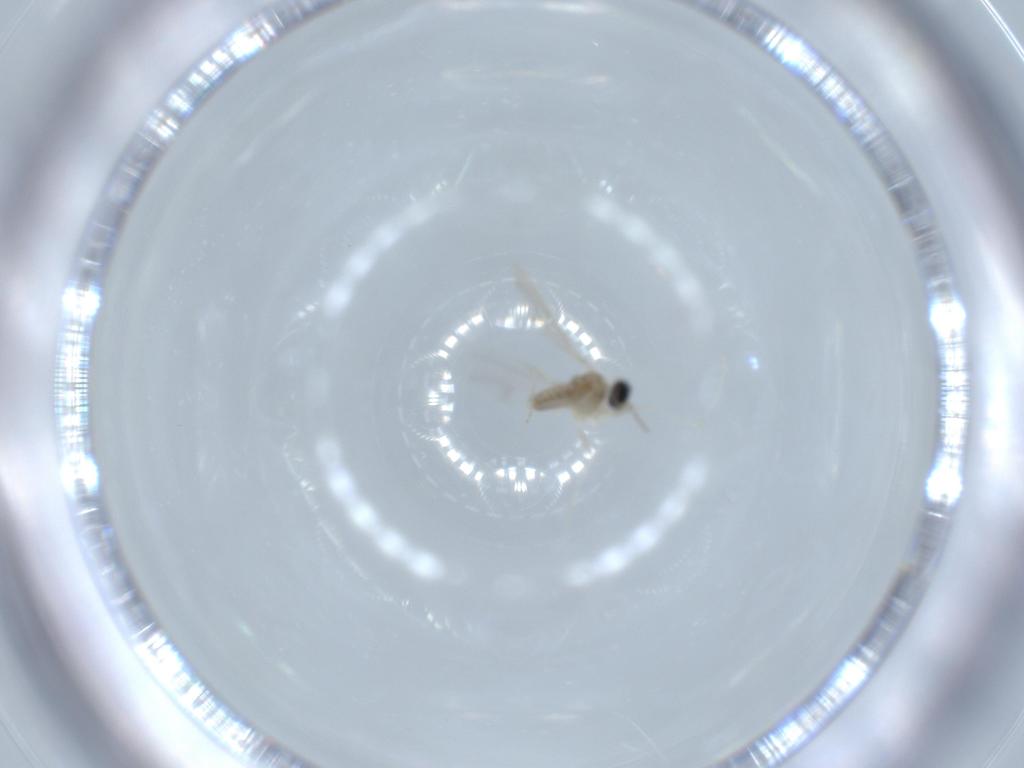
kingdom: Animalia
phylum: Arthropoda
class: Insecta
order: Diptera
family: Cecidomyiidae
